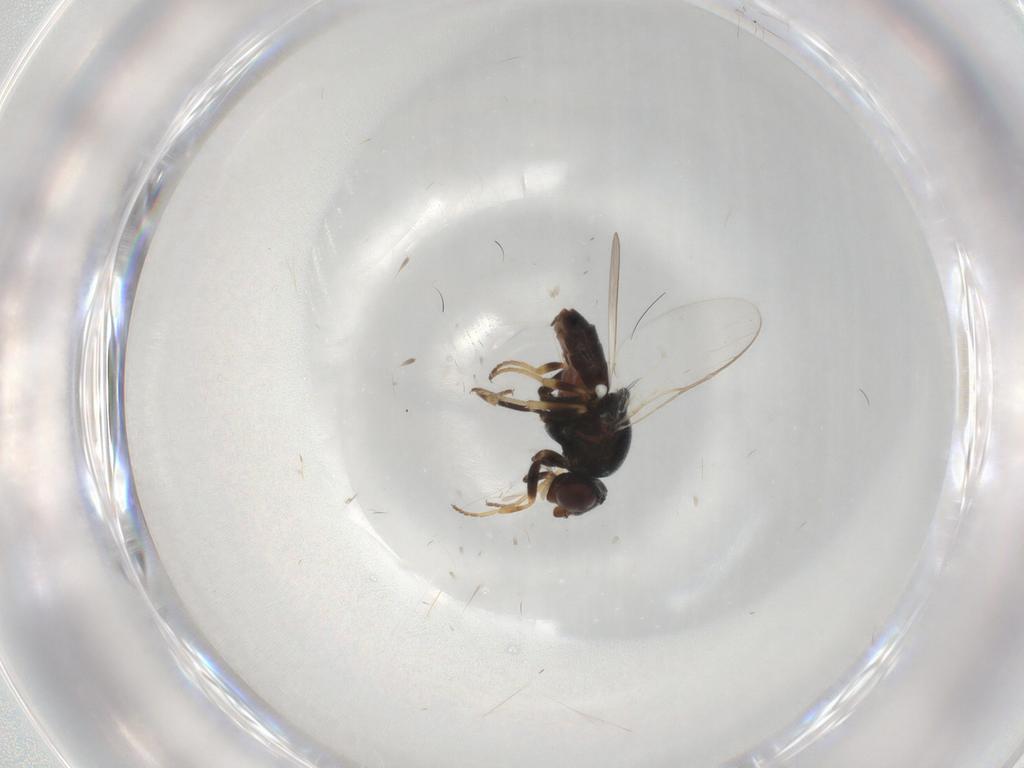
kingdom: Animalia
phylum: Arthropoda
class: Insecta
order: Diptera
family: Chloropidae
